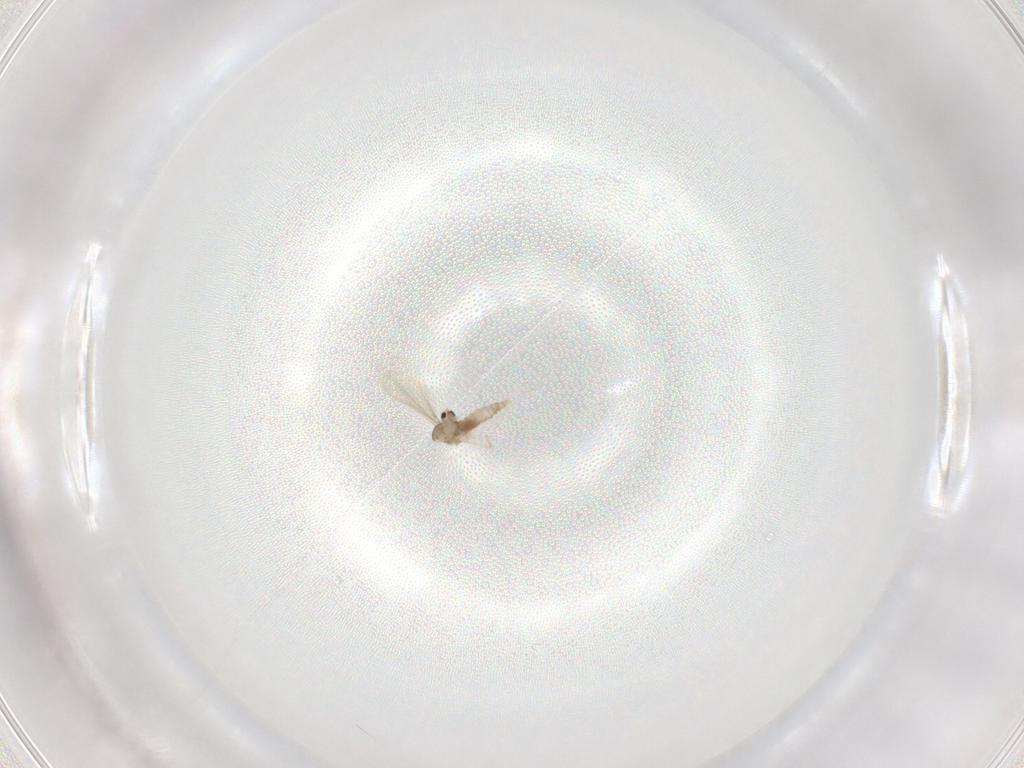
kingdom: Animalia
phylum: Arthropoda
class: Insecta
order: Diptera
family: Cecidomyiidae
